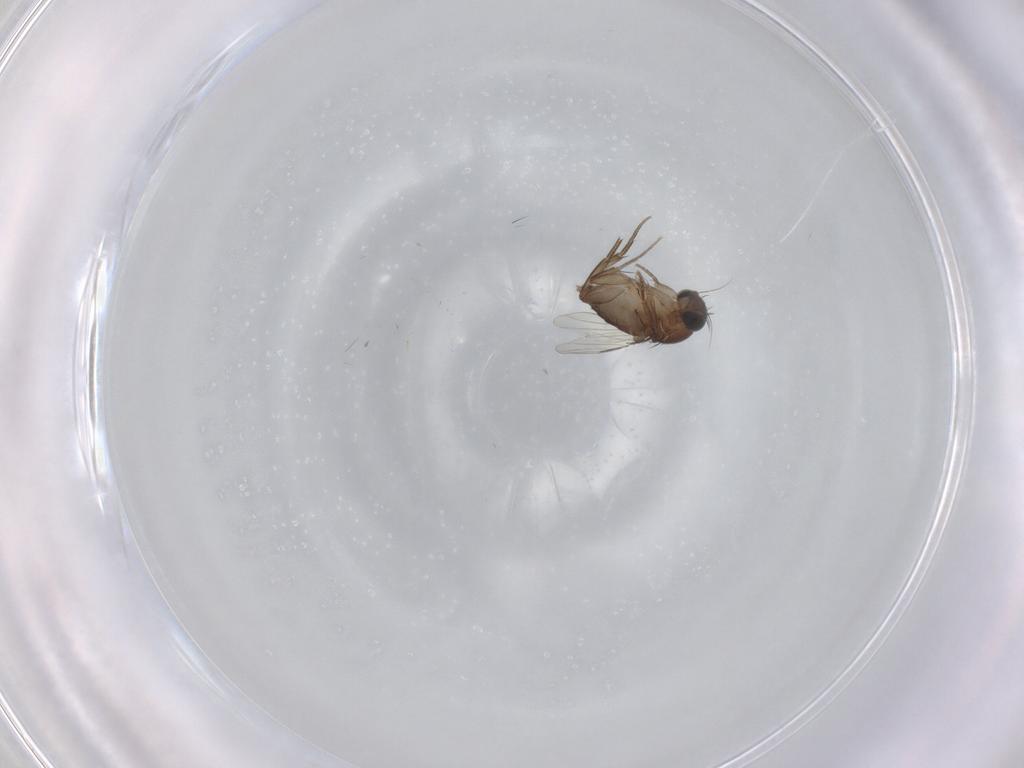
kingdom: Animalia
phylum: Arthropoda
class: Insecta
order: Diptera
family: Phoridae
